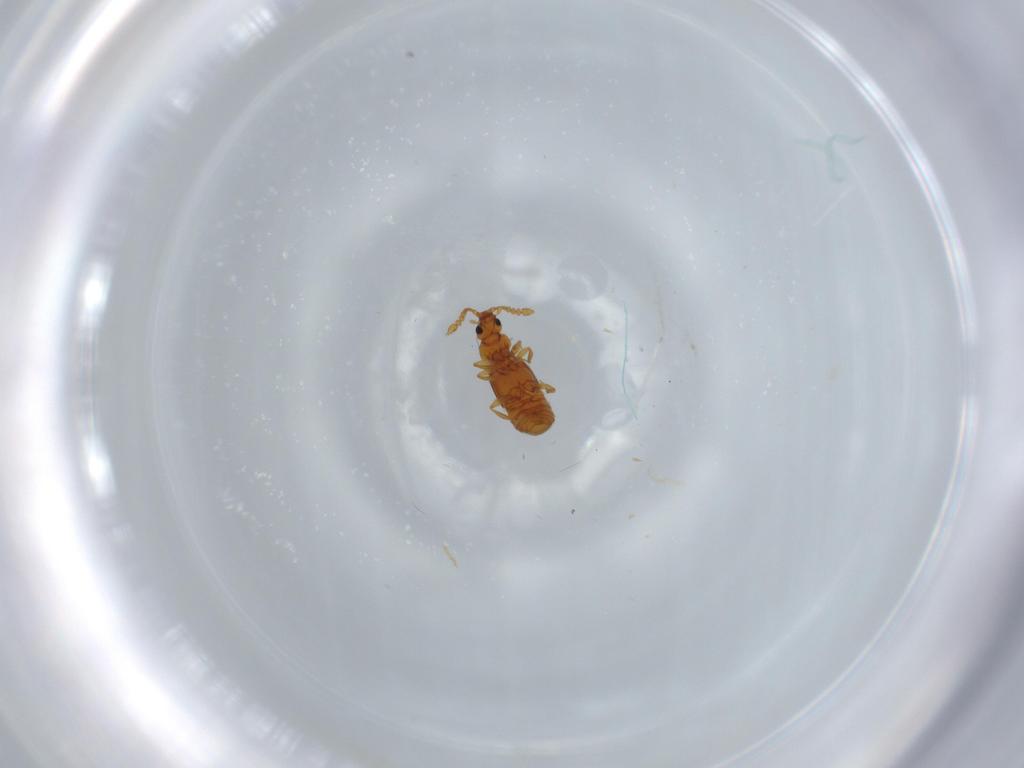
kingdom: Animalia
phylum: Arthropoda
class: Insecta
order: Coleoptera
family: Staphylinidae
